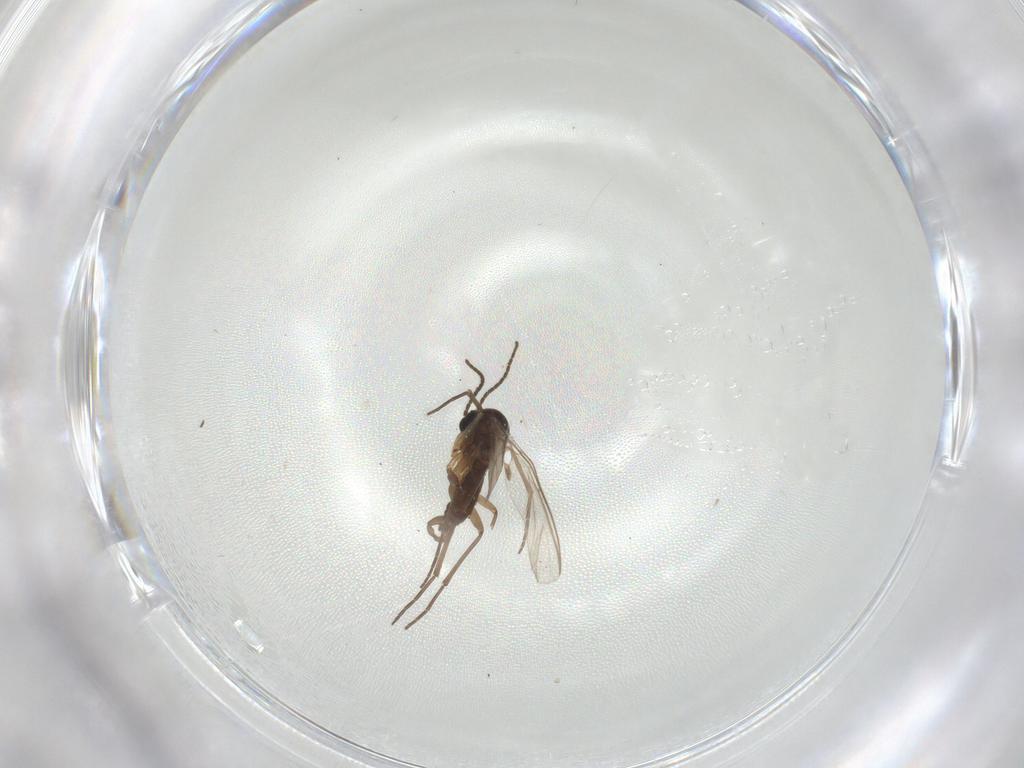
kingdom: Animalia
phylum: Arthropoda
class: Insecta
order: Diptera
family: Sciaridae
